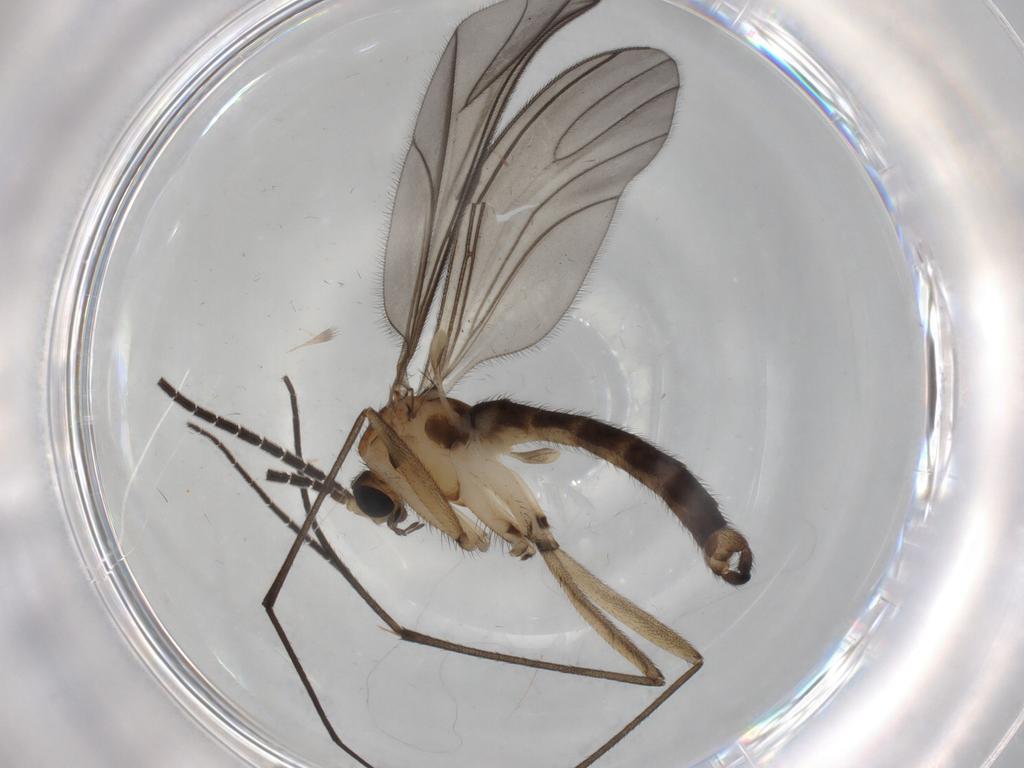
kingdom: Animalia
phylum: Arthropoda
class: Insecta
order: Diptera
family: Sciaridae
